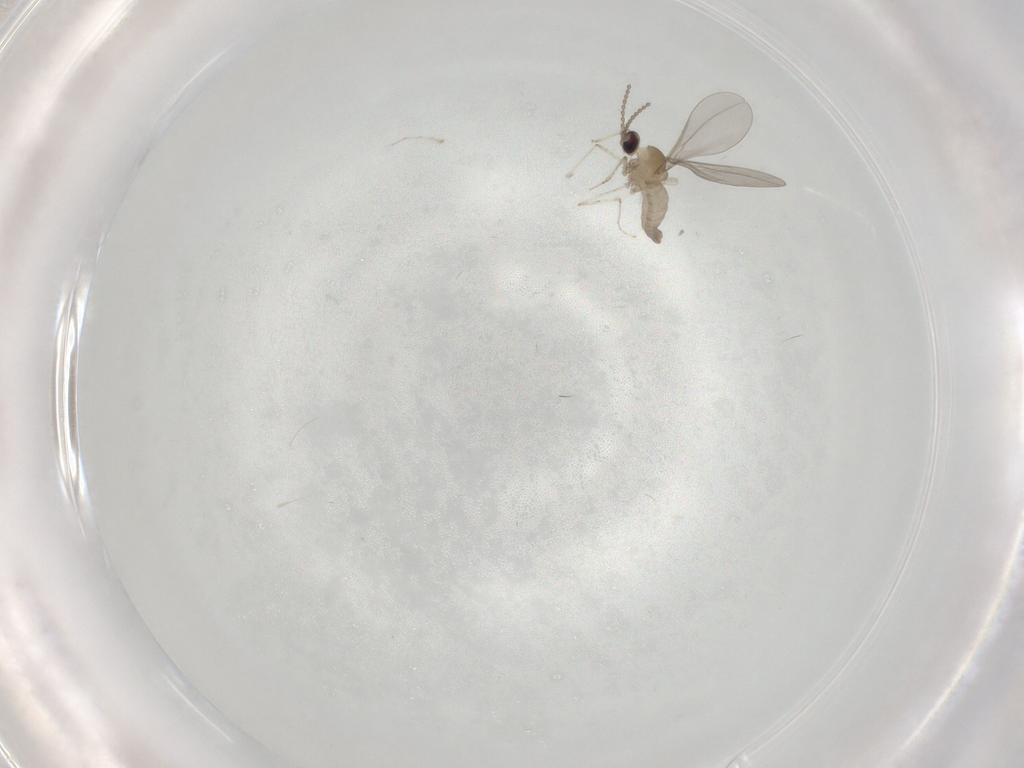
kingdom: Animalia
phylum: Arthropoda
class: Insecta
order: Diptera
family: Cecidomyiidae
